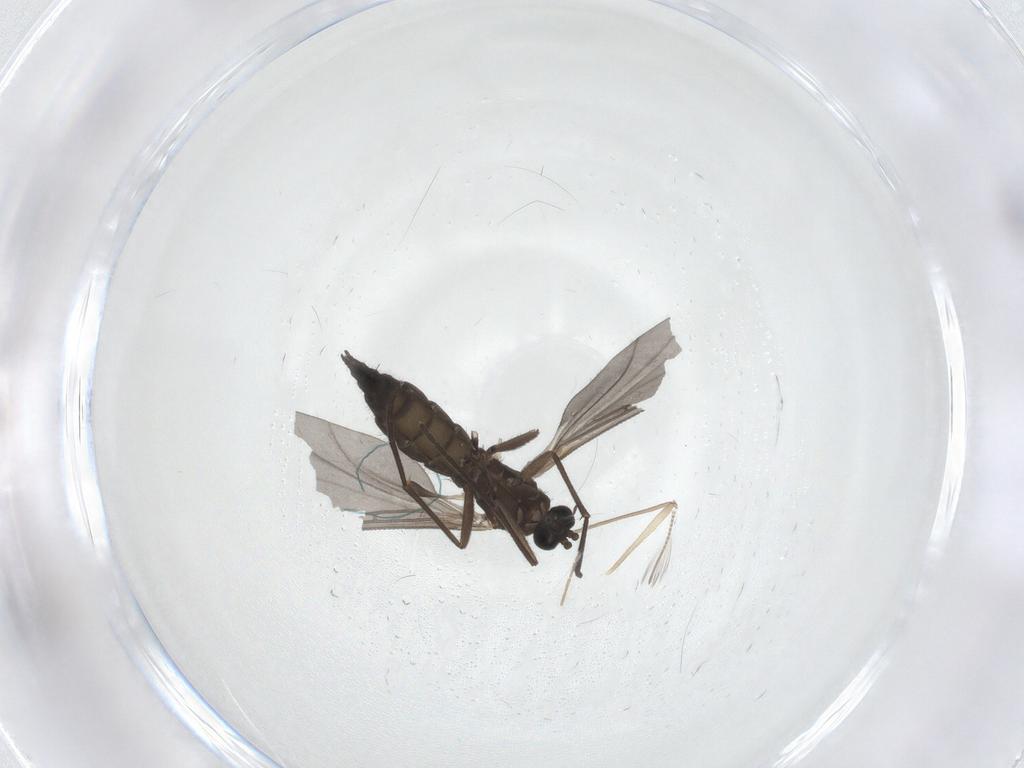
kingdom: Animalia
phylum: Arthropoda
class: Insecta
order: Diptera
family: Sciaridae
